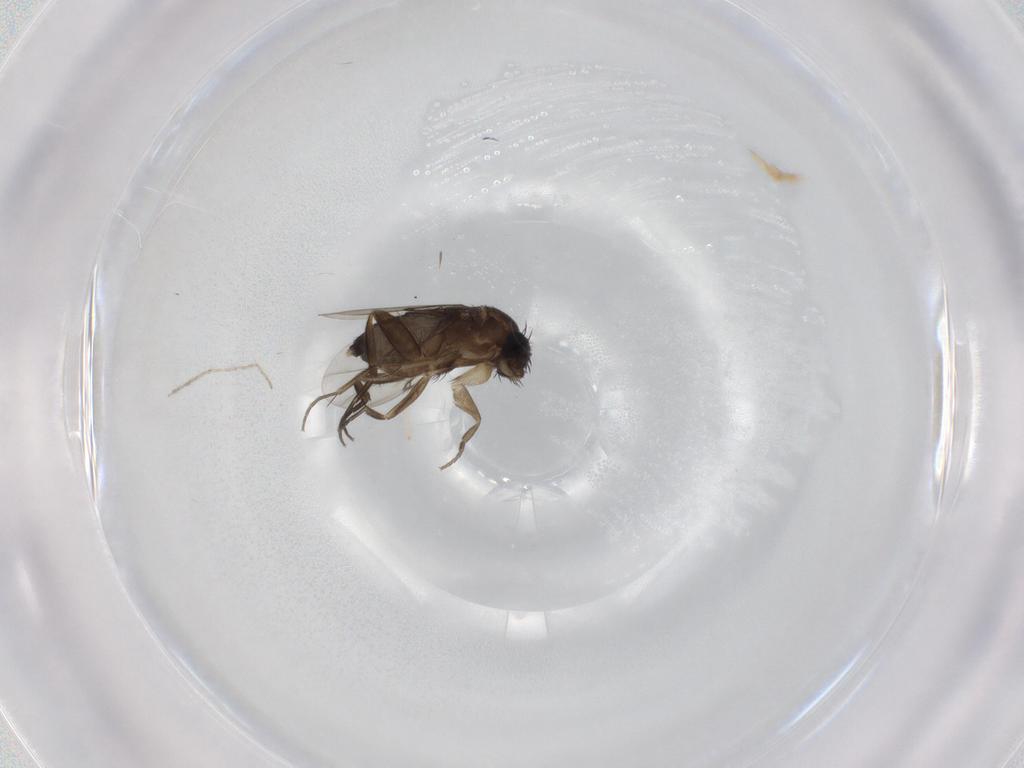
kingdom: Animalia
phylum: Arthropoda
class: Insecta
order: Diptera
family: Phoridae
